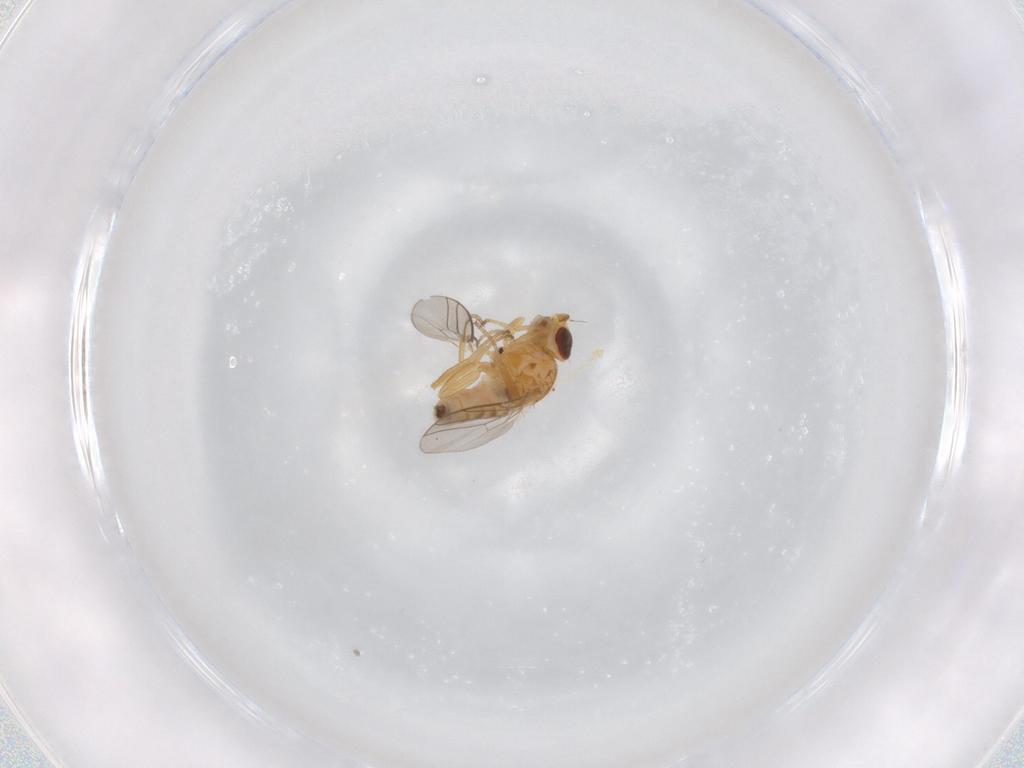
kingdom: Animalia
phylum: Arthropoda
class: Insecta
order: Diptera
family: Chloropidae
